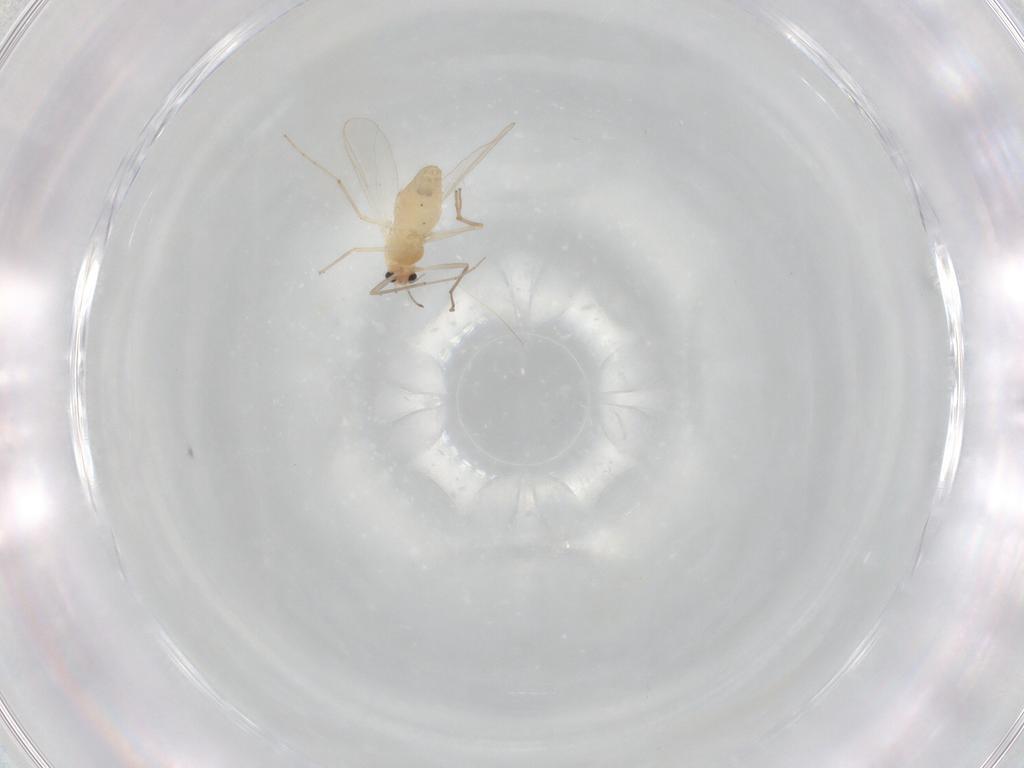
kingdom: Animalia
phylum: Arthropoda
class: Insecta
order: Diptera
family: Chironomidae
